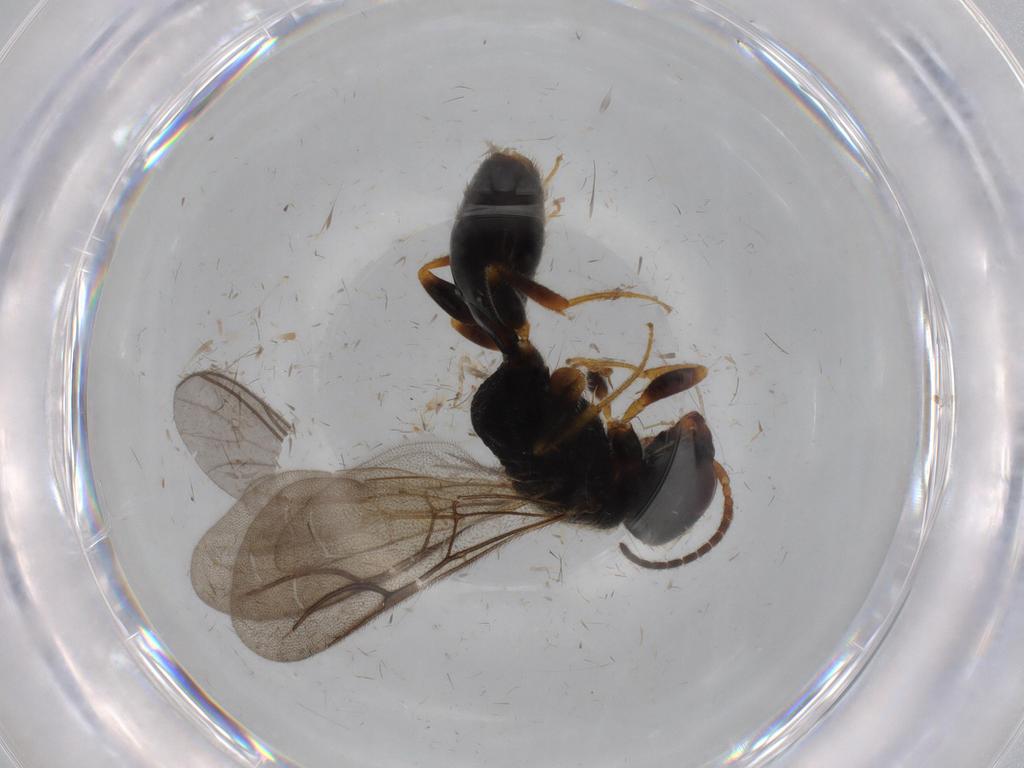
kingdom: Animalia
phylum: Arthropoda
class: Insecta
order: Hymenoptera
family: Bethylidae
